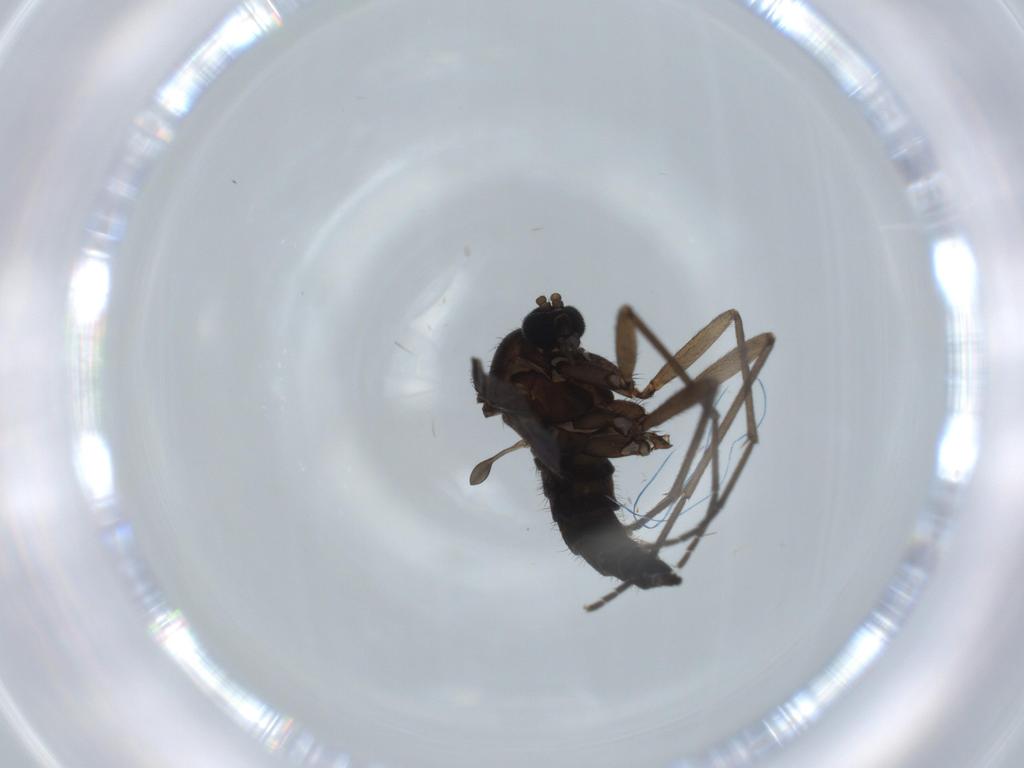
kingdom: Animalia
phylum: Arthropoda
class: Insecta
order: Diptera
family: Sciaridae
